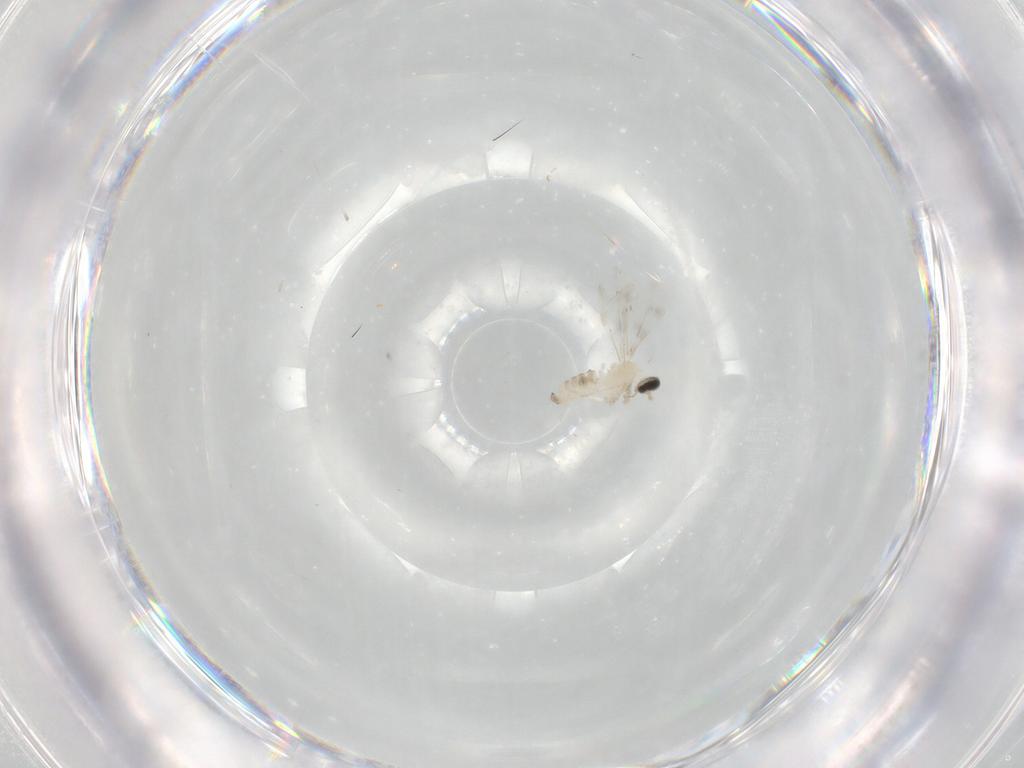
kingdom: Animalia
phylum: Arthropoda
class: Insecta
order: Diptera
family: Cecidomyiidae
